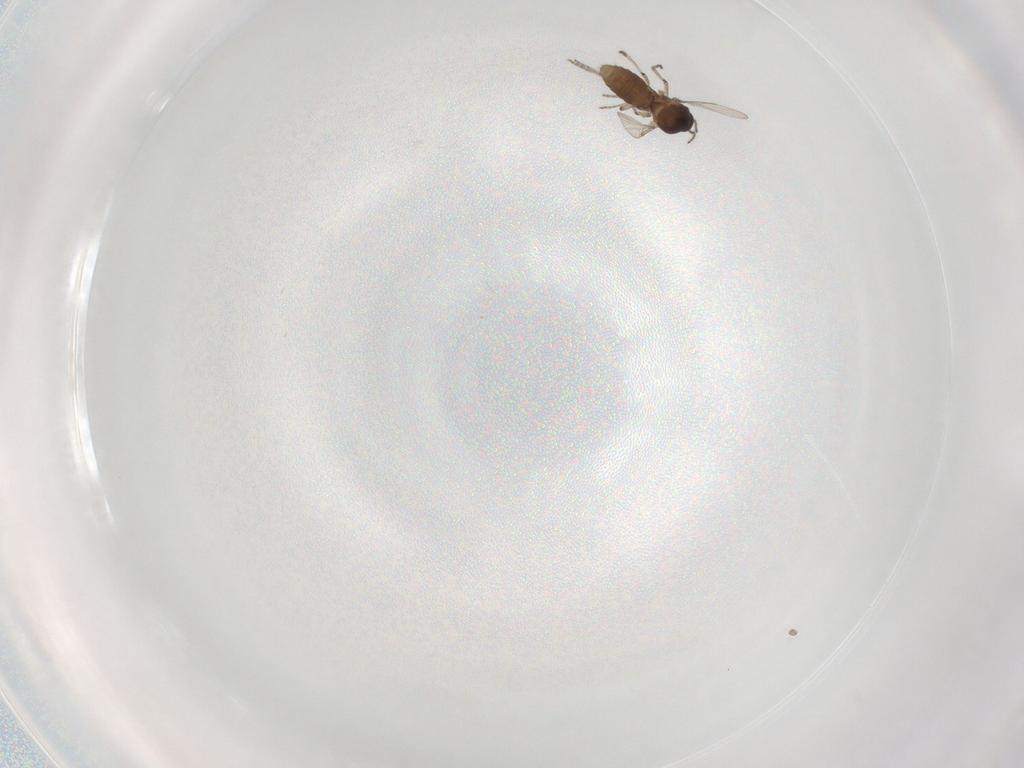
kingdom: Animalia
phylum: Arthropoda
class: Insecta
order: Diptera
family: Ceratopogonidae
